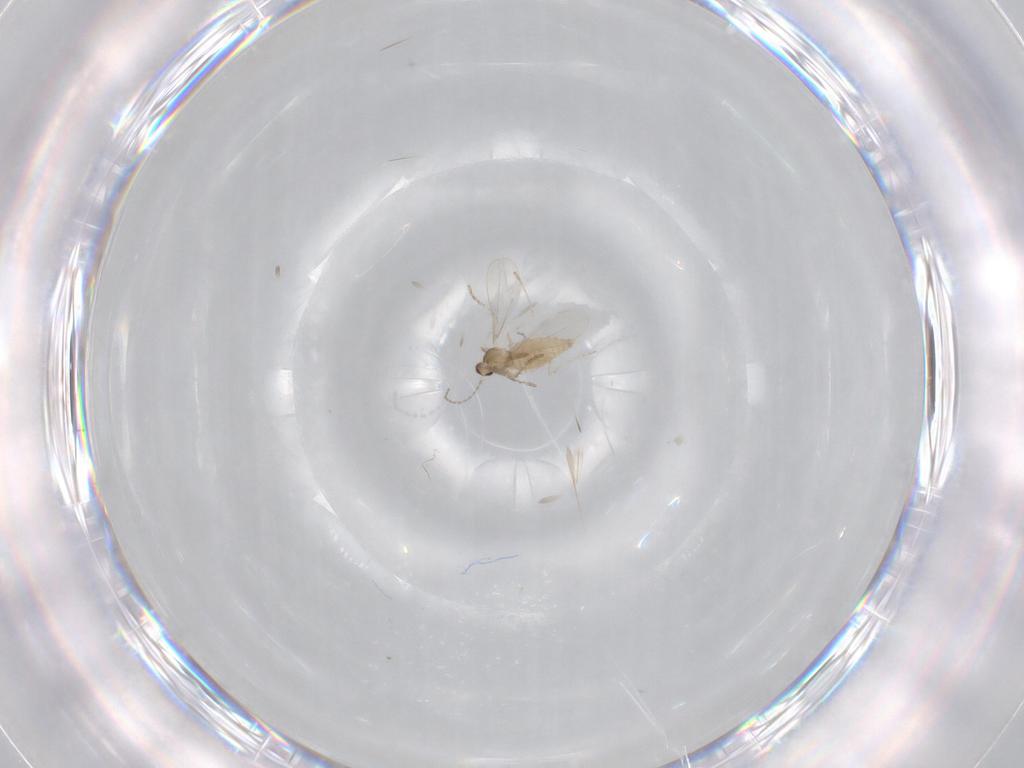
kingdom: Animalia
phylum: Arthropoda
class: Insecta
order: Diptera
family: Cecidomyiidae
